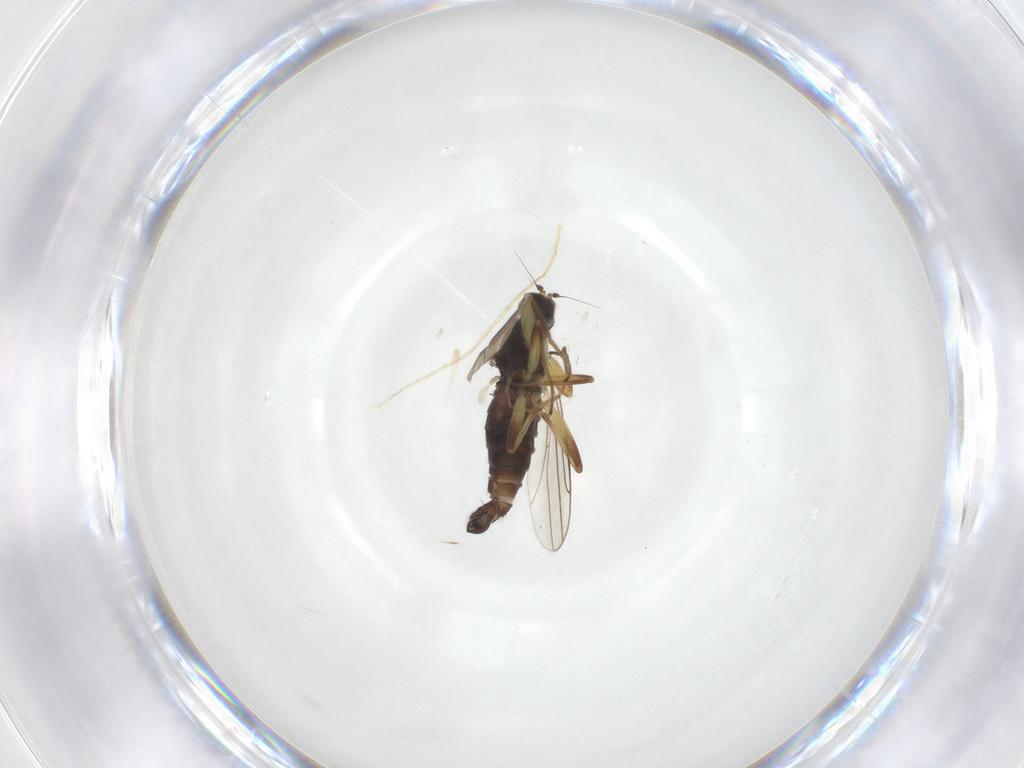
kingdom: Animalia
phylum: Arthropoda
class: Insecta
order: Diptera
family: Hybotidae
